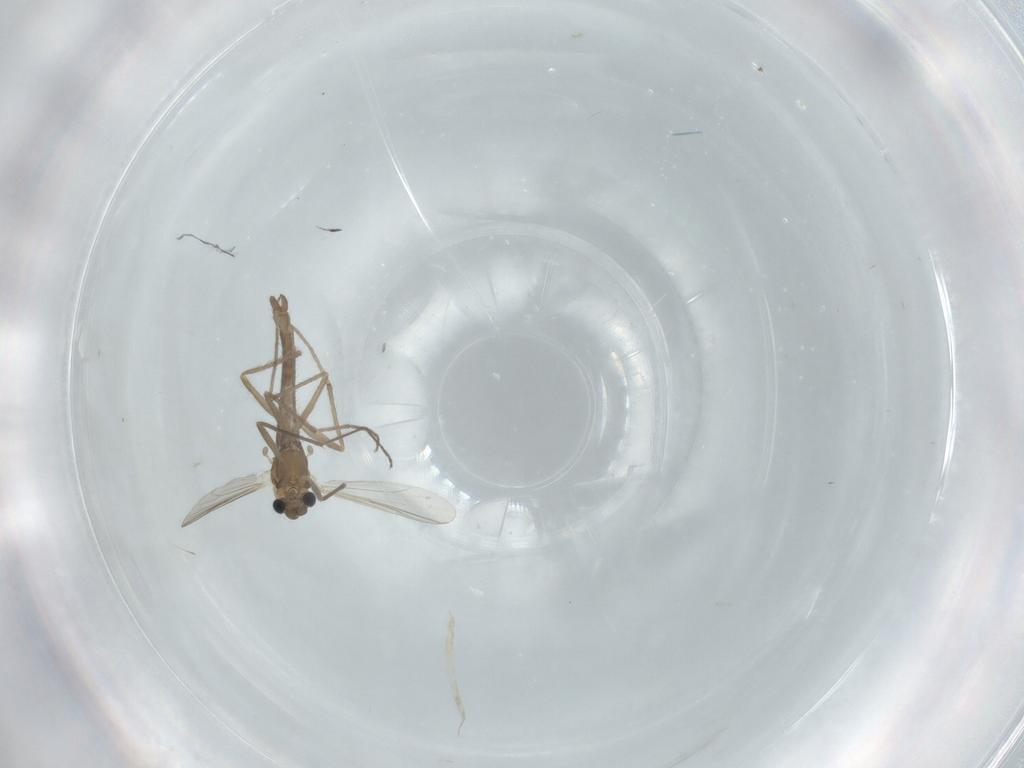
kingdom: Animalia
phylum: Arthropoda
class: Insecta
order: Diptera
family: Chironomidae
